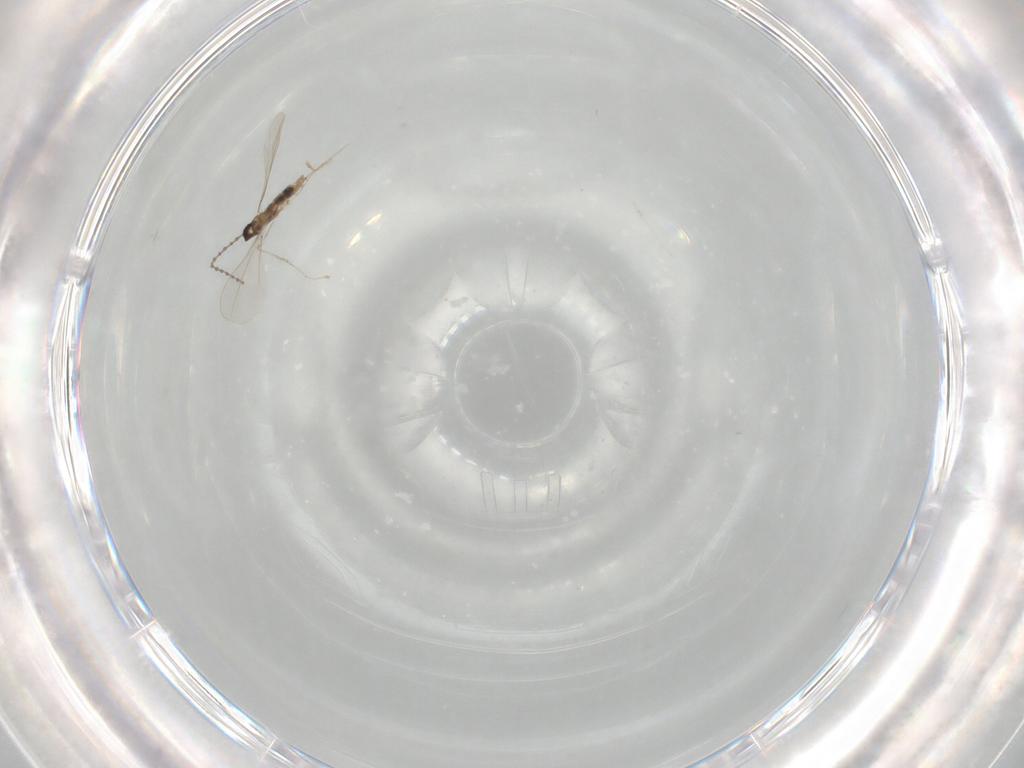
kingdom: Animalia
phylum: Arthropoda
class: Insecta
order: Diptera
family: Cecidomyiidae
